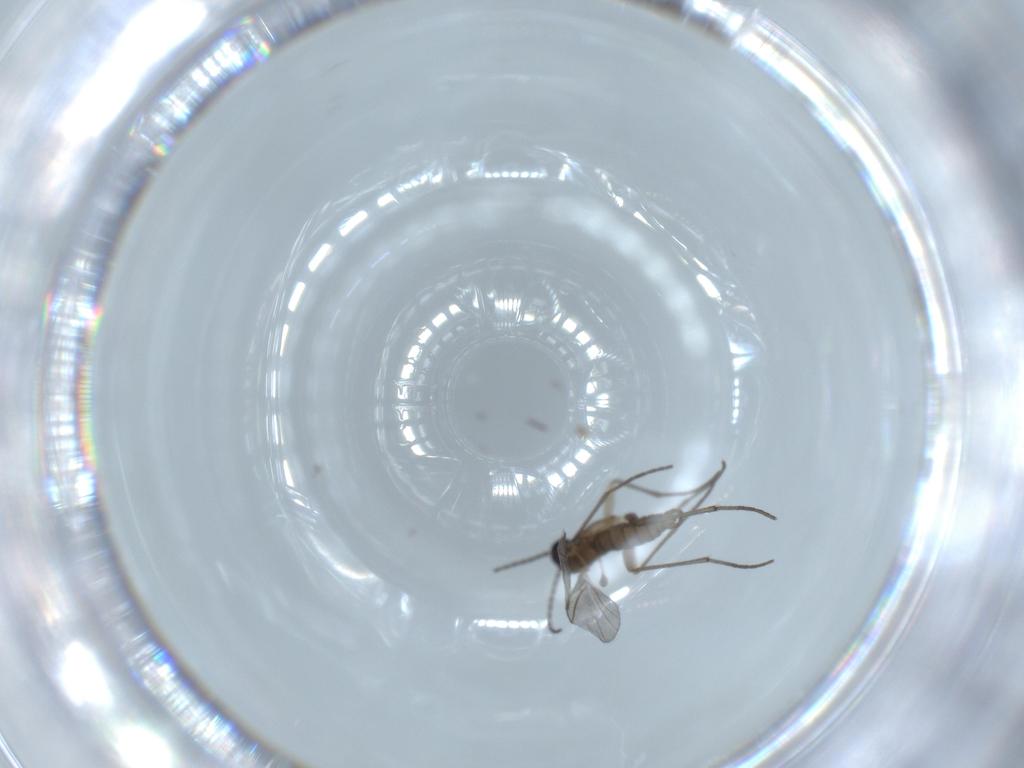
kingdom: Animalia
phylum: Arthropoda
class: Insecta
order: Diptera
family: Sciaridae
